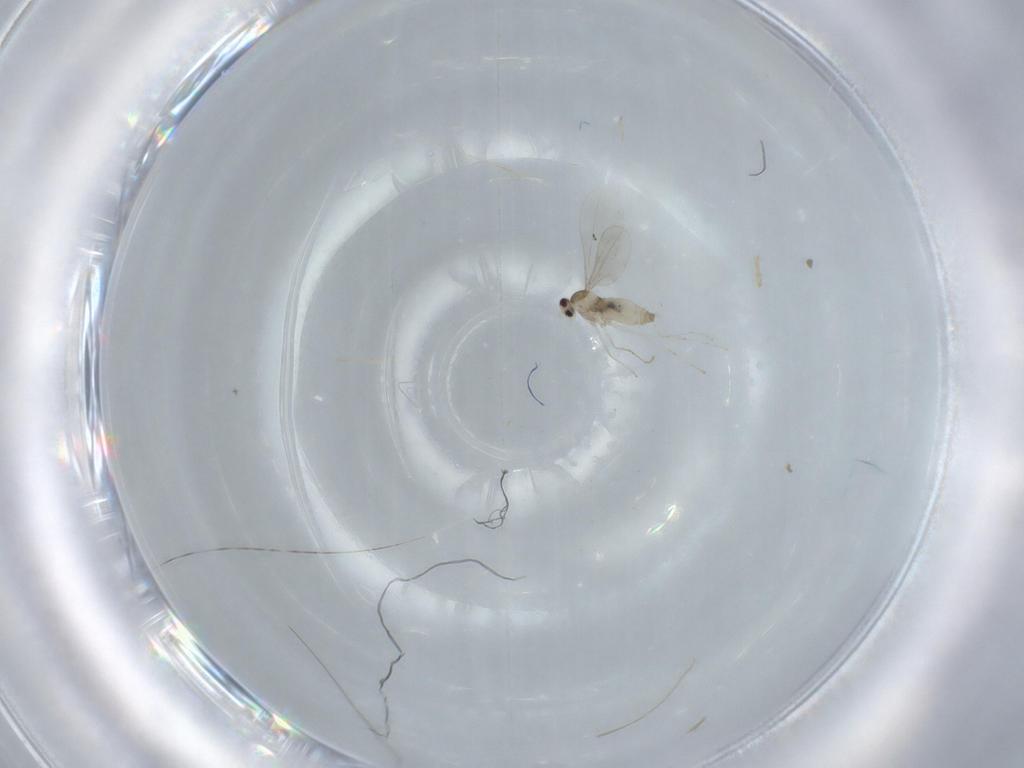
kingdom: Animalia
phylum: Arthropoda
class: Insecta
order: Diptera
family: Cecidomyiidae
